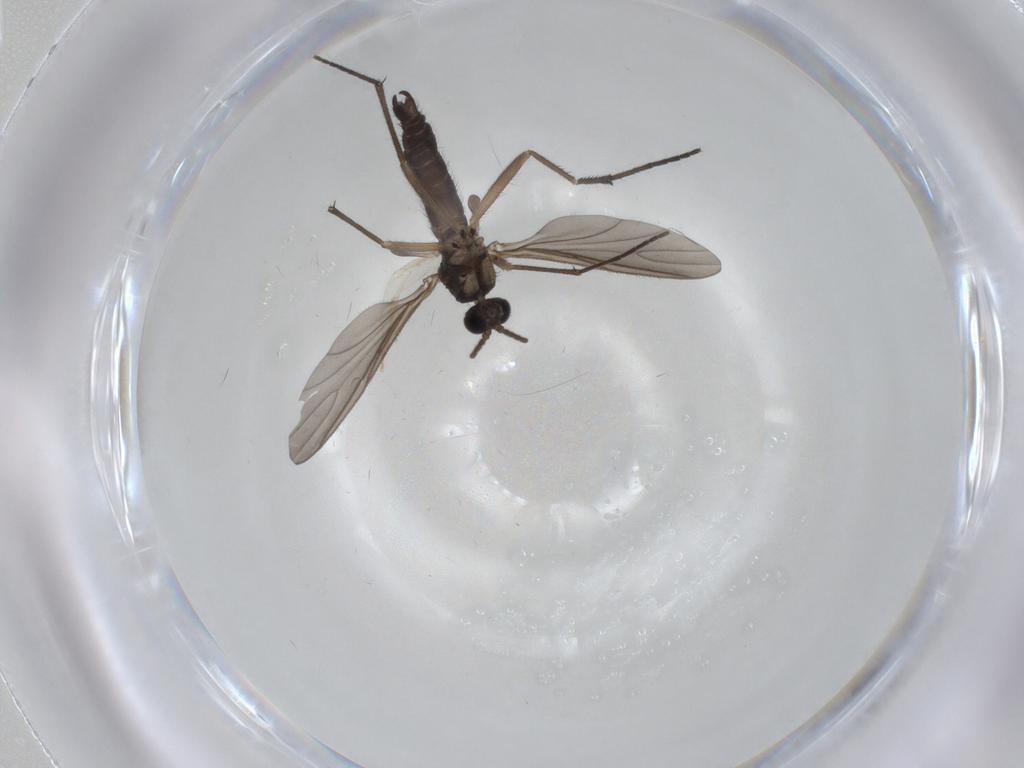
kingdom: Animalia
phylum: Arthropoda
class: Insecta
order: Diptera
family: Sciaridae
